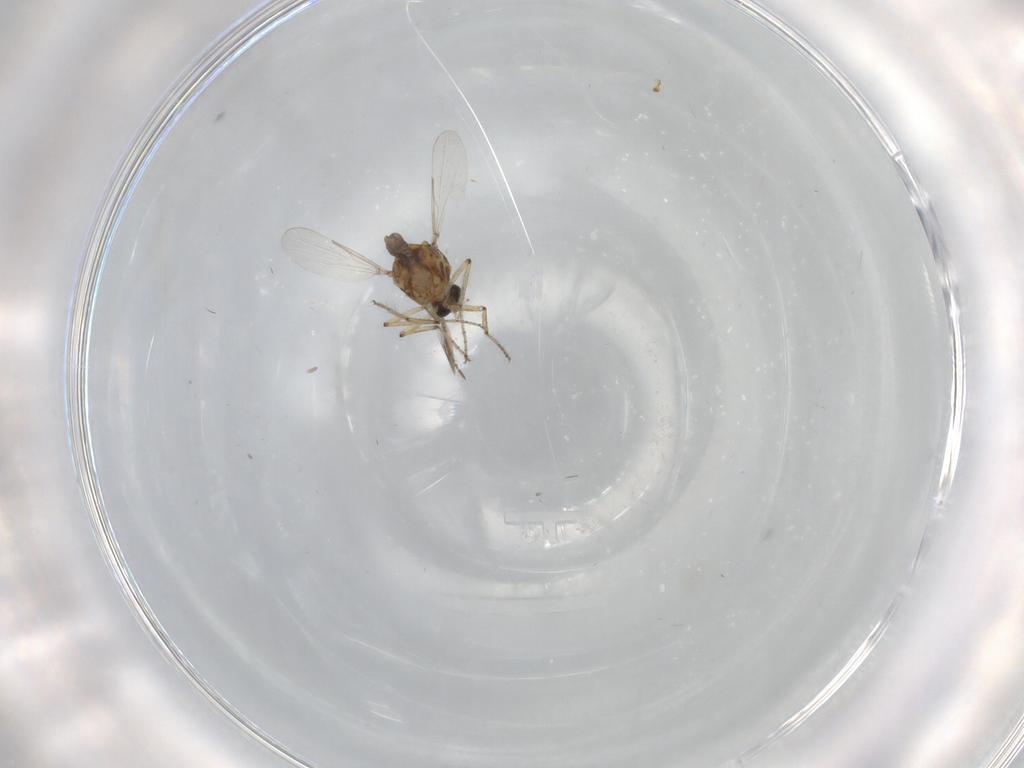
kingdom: Animalia
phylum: Arthropoda
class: Insecta
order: Diptera
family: Ceratopogonidae
